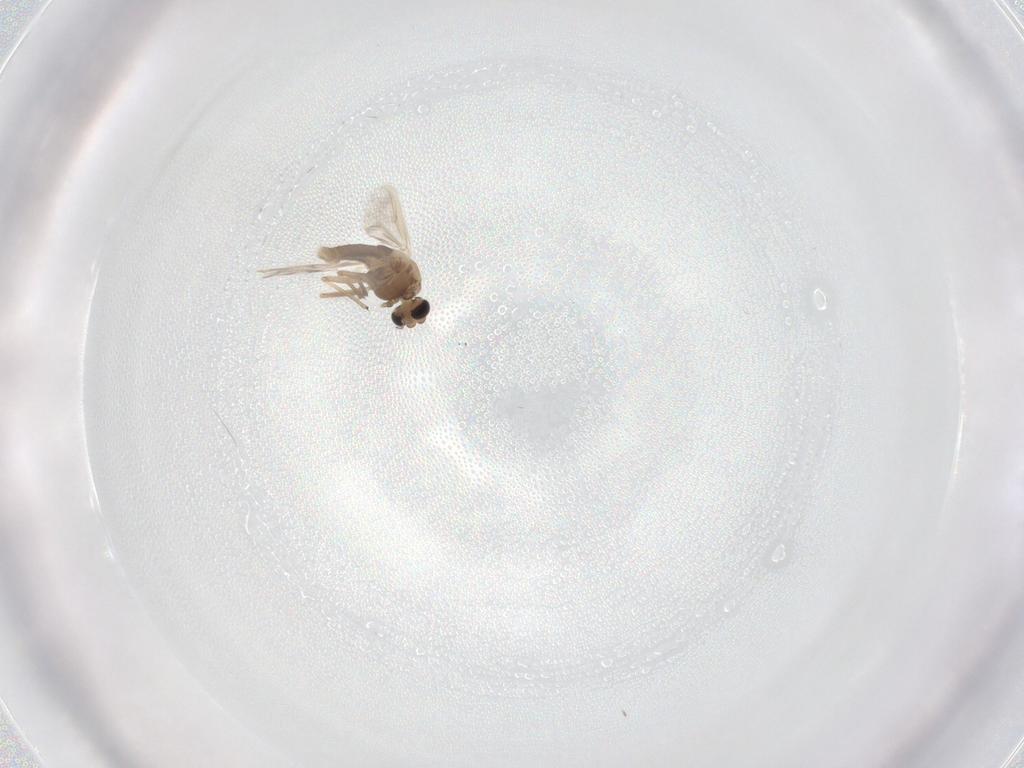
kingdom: Animalia
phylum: Arthropoda
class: Insecta
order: Diptera
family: Chironomidae
